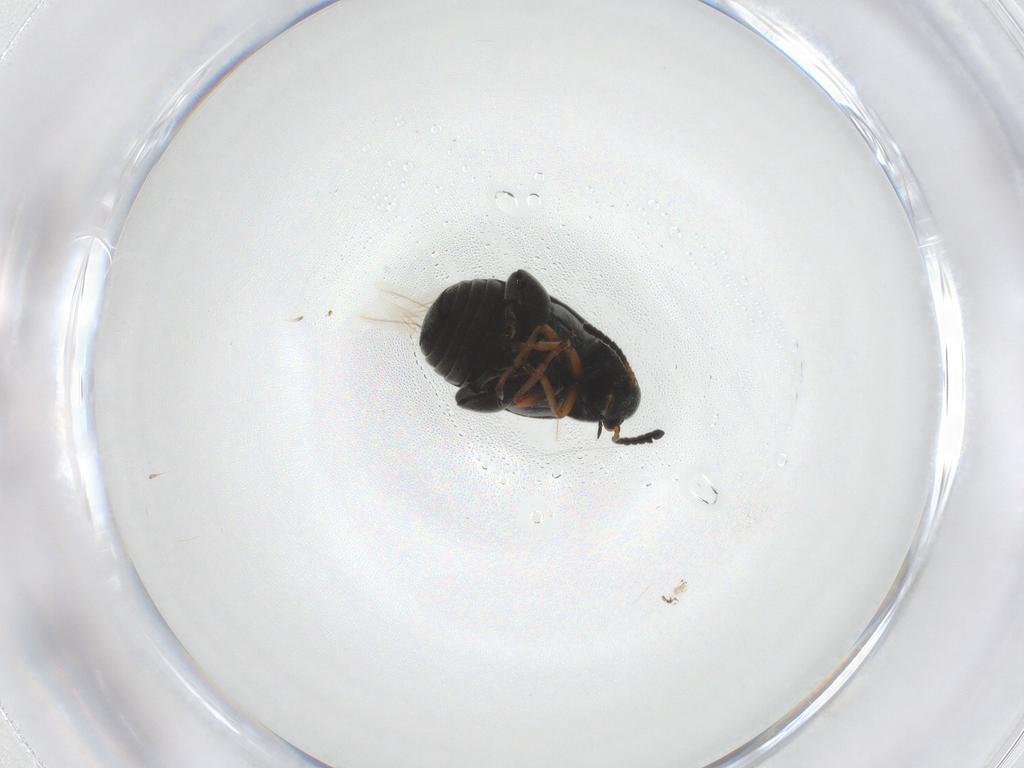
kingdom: Animalia
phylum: Arthropoda
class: Insecta
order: Coleoptera
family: Chrysomelidae
